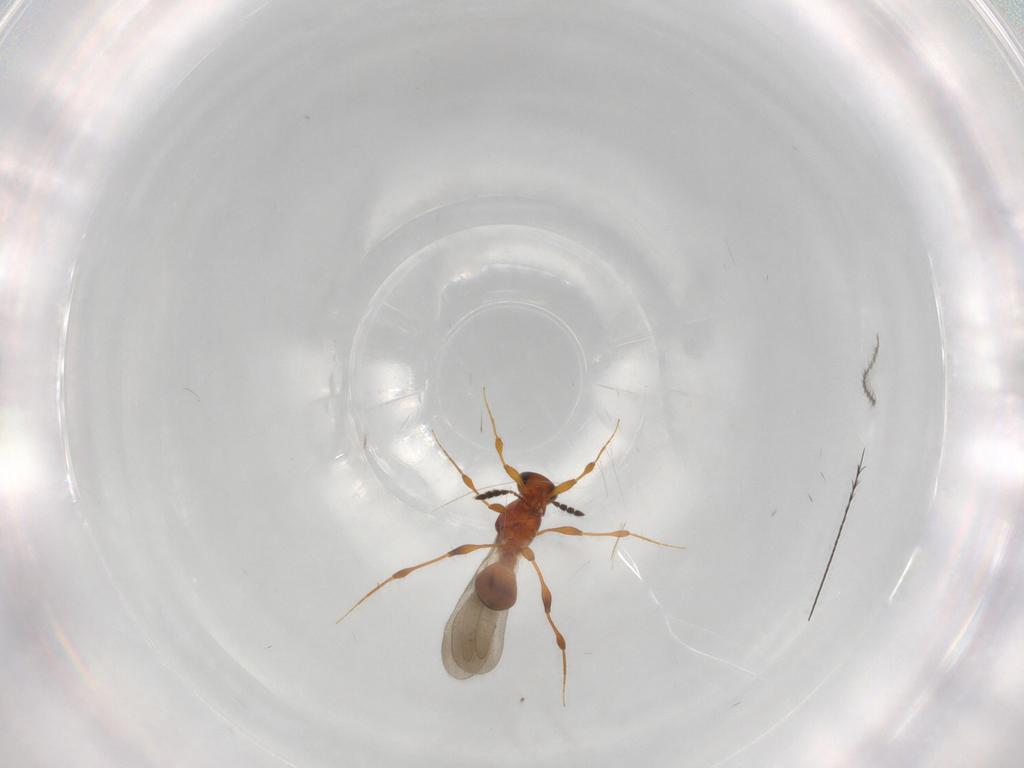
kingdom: Animalia
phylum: Arthropoda
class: Insecta
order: Hymenoptera
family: Platygastridae
